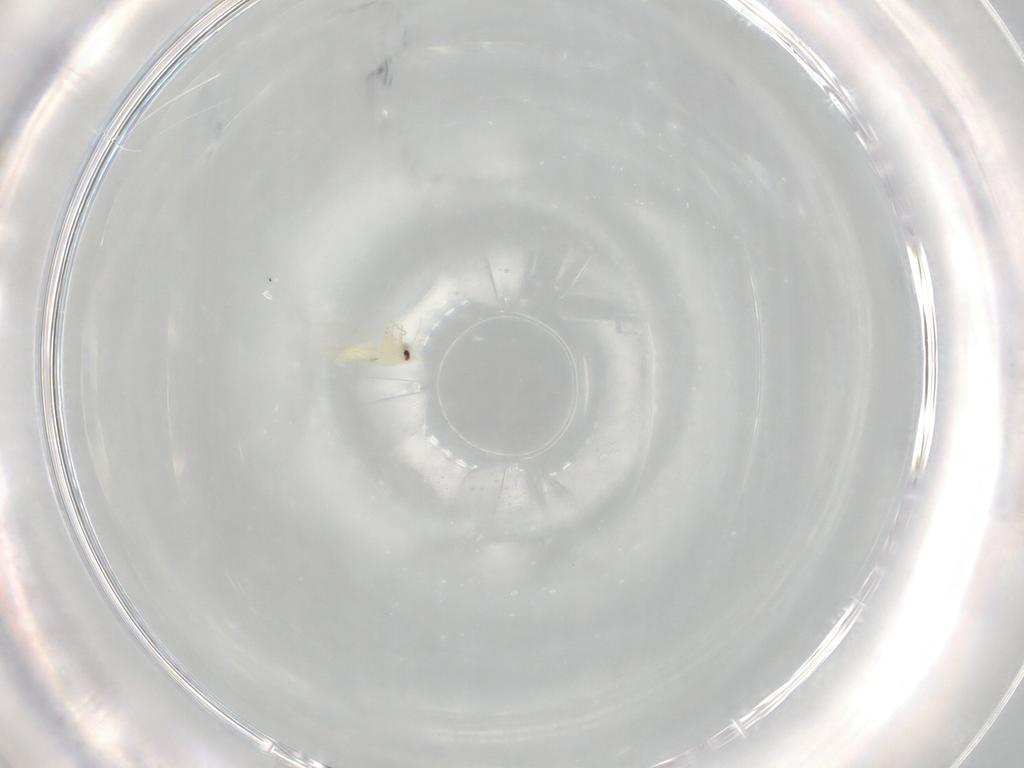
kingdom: Animalia
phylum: Arthropoda
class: Insecta
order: Hemiptera
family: Aleyrodidae
